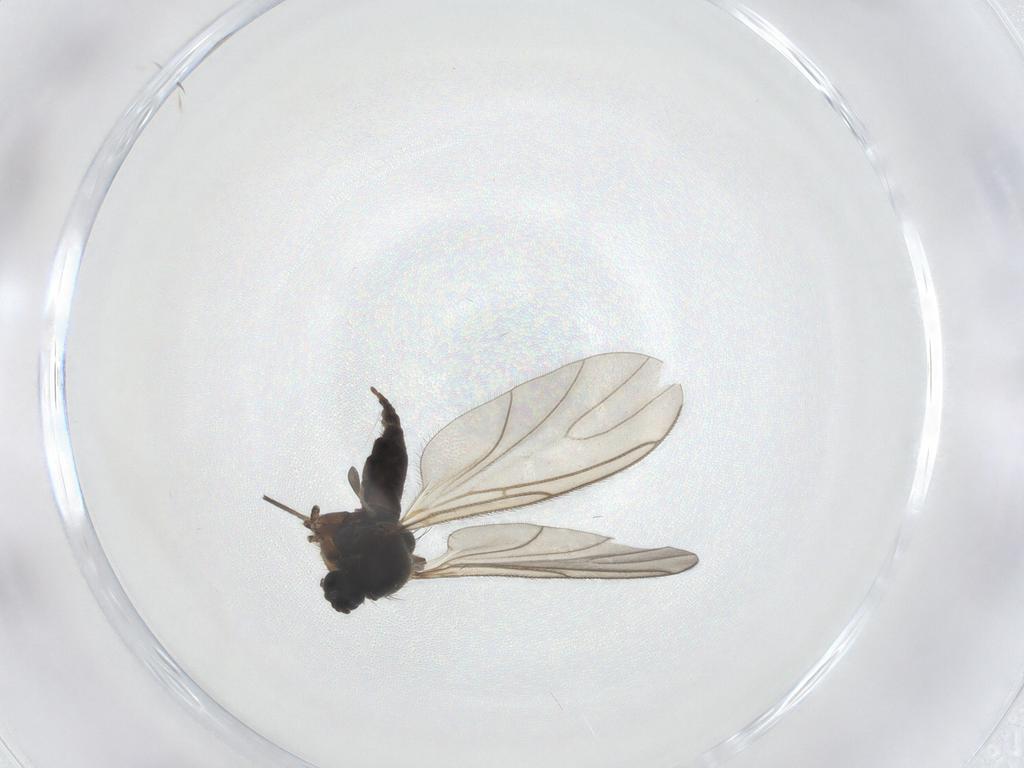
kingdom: Animalia
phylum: Arthropoda
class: Insecta
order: Diptera
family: Sciaridae
